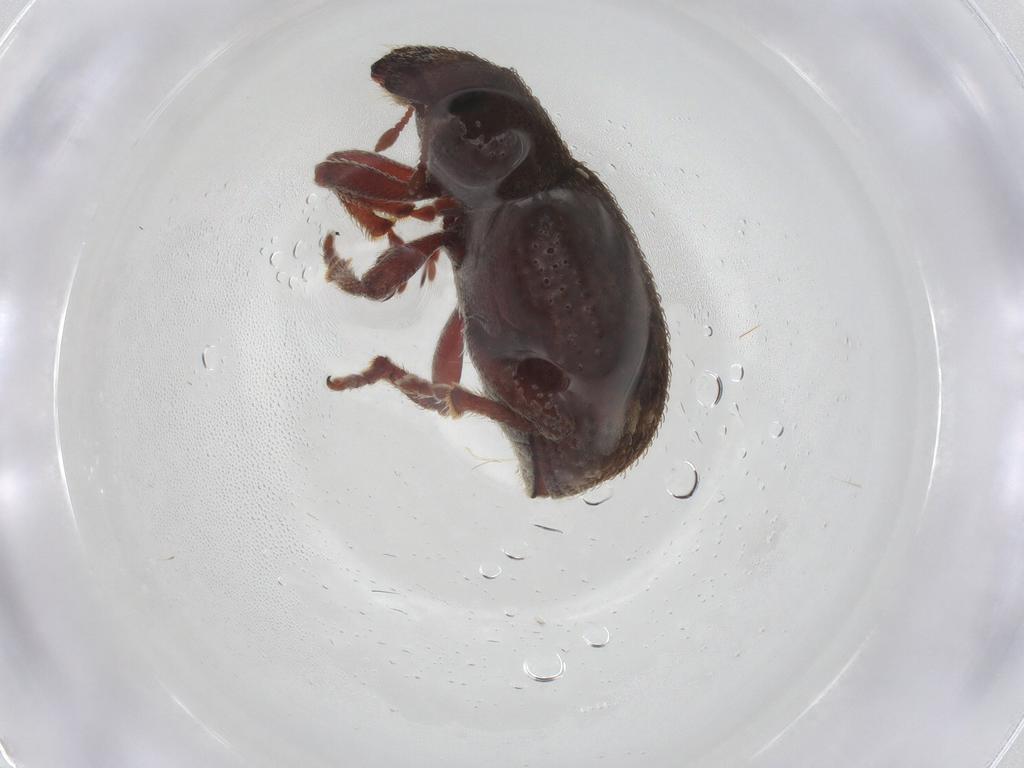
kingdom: Animalia
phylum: Arthropoda
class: Insecta
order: Coleoptera
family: Curculionidae
